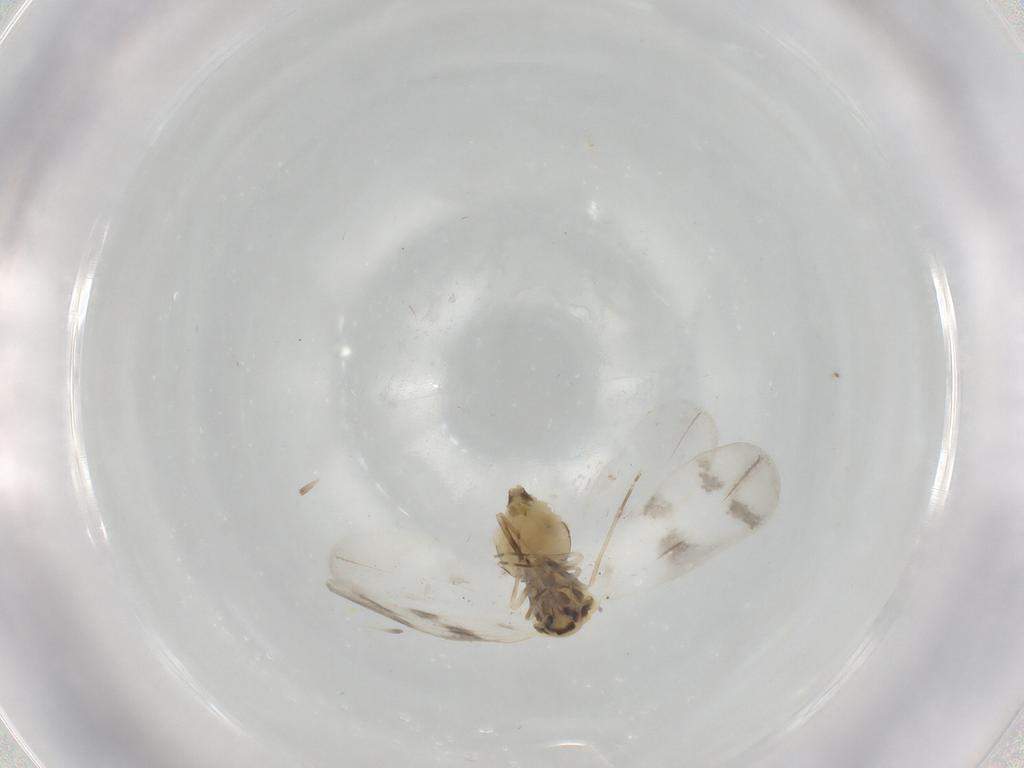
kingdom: Animalia
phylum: Arthropoda
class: Insecta
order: Hemiptera
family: Aleyrodidae
